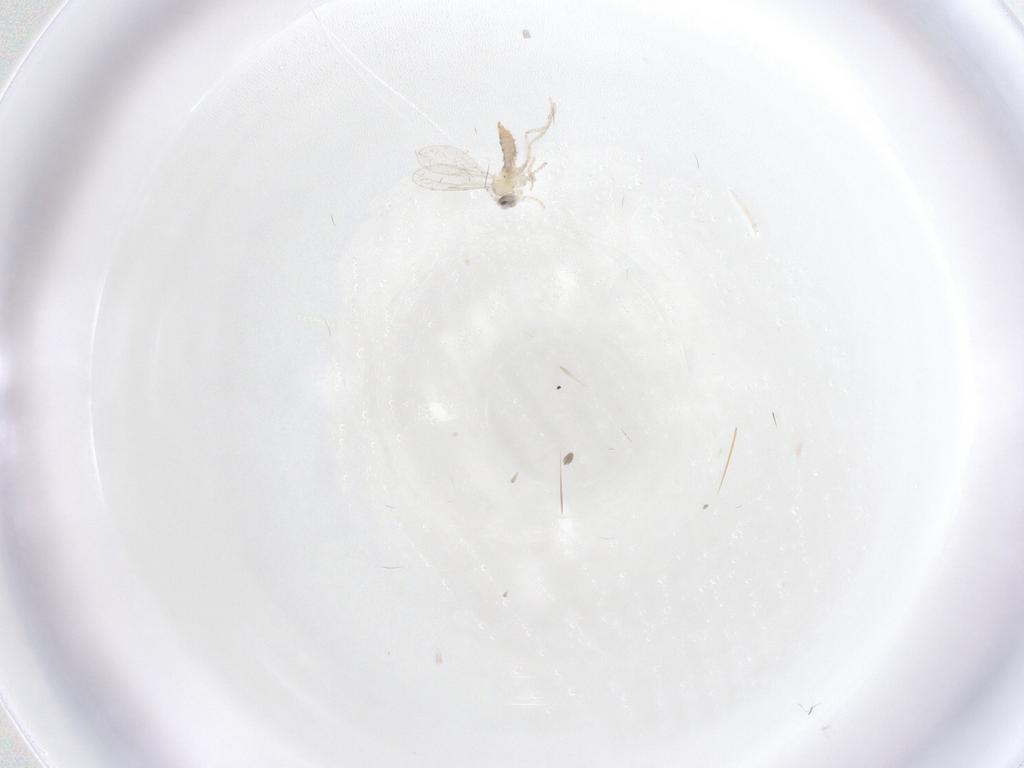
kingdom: Animalia
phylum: Arthropoda
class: Insecta
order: Diptera
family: Cecidomyiidae
